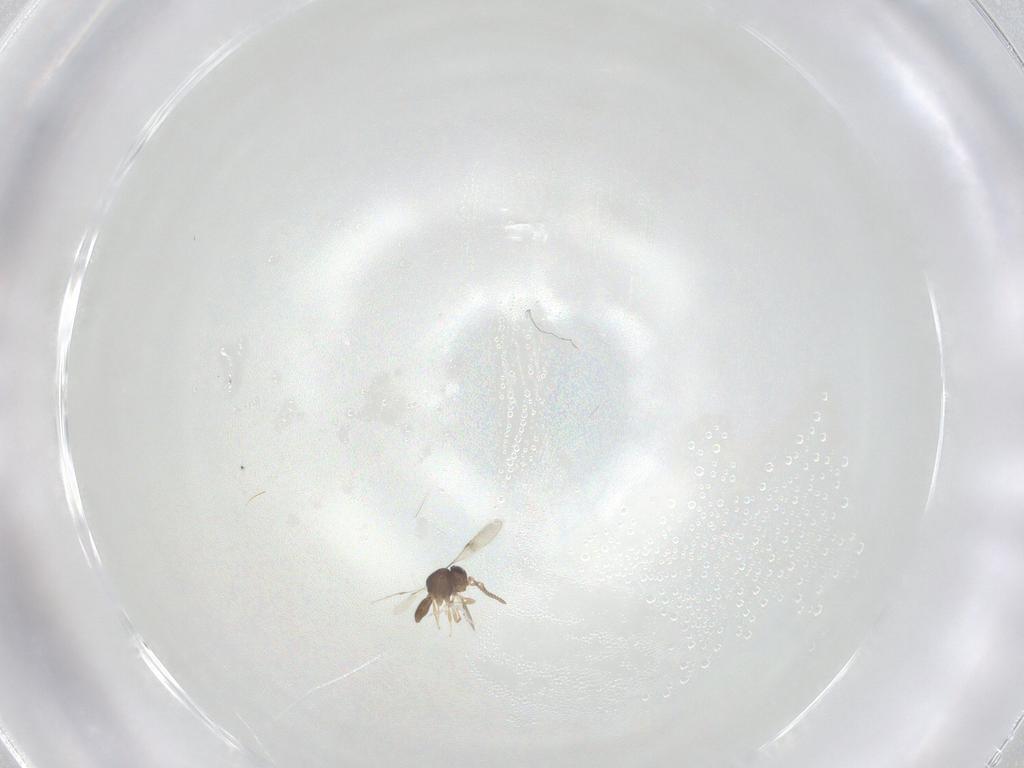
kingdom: Animalia
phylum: Arthropoda
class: Insecta
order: Hymenoptera
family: Scelionidae
